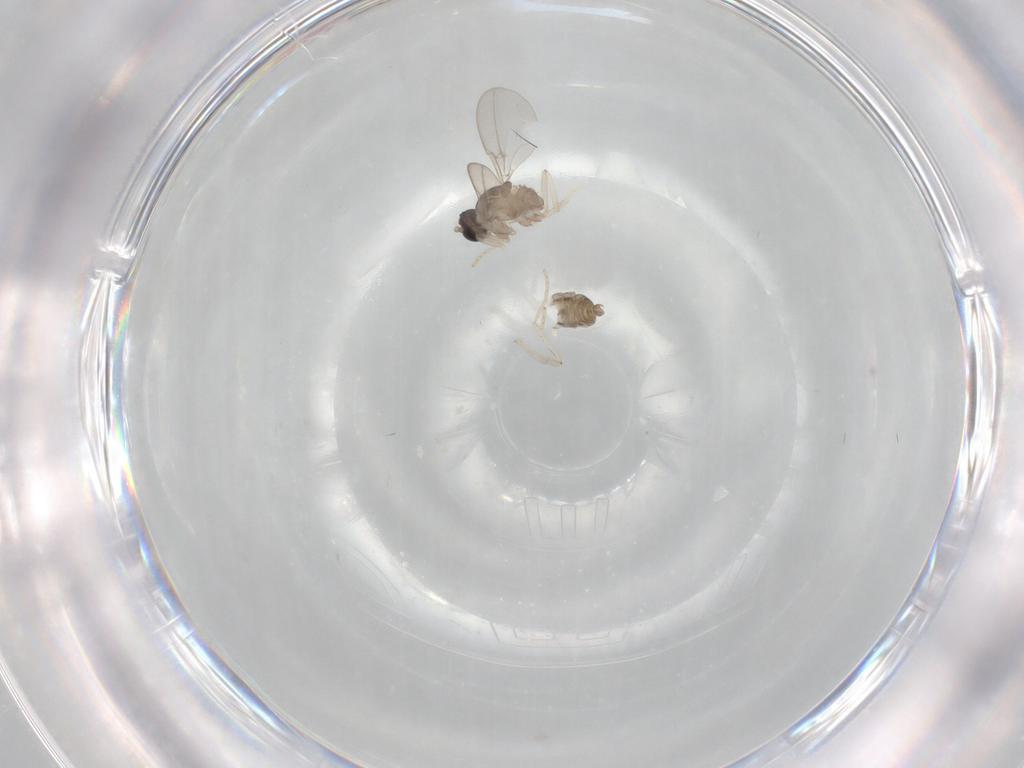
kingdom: Animalia
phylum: Arthropoda
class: Insecta
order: Diptera
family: Cecidomyiidae
